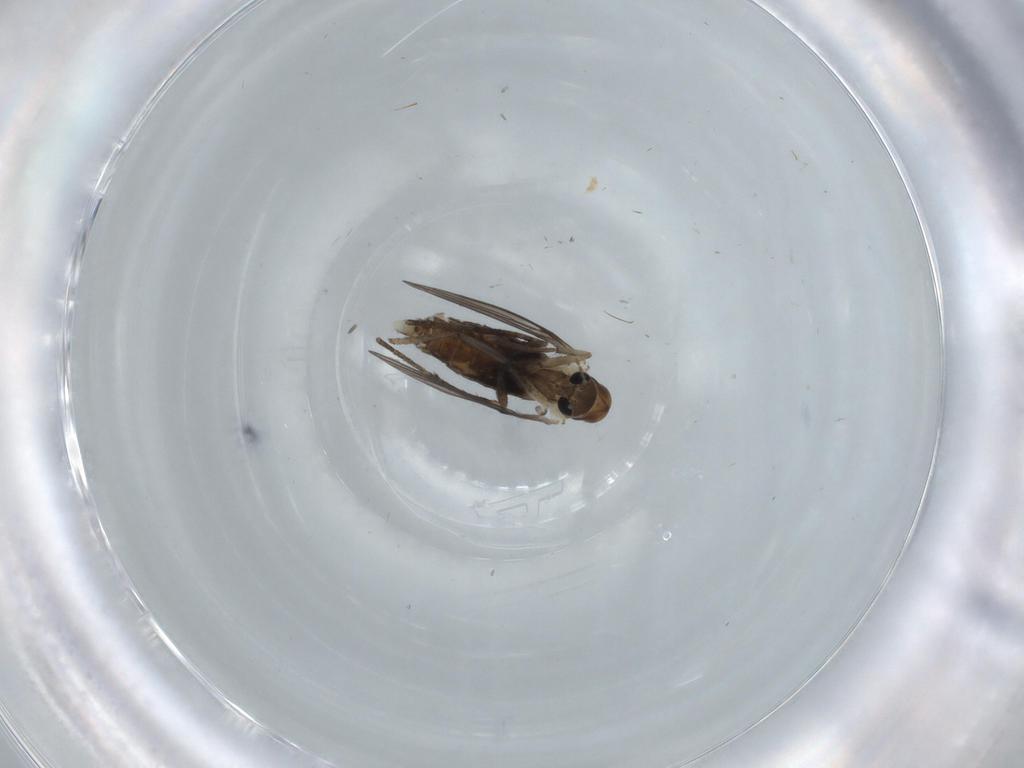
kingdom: Animalia
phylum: Arthropoda
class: Insecta
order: Diptera
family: Psychodidae
